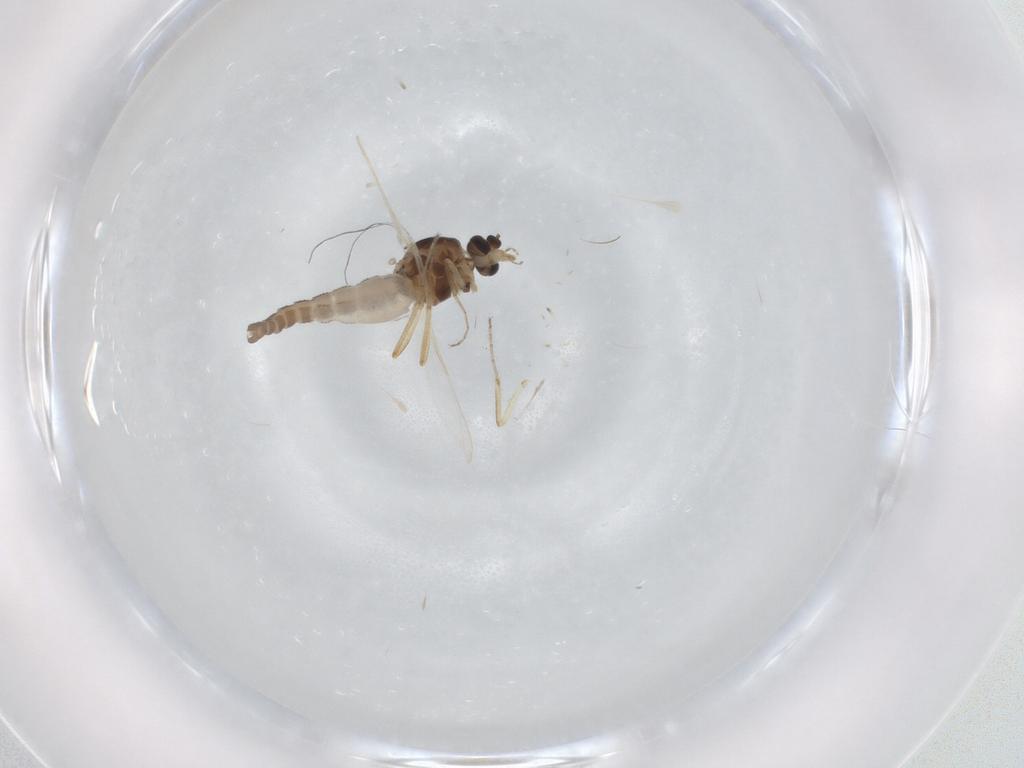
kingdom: Animalia
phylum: Arthropoda
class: Insecta
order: Diptera
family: Ceratopogonidae
